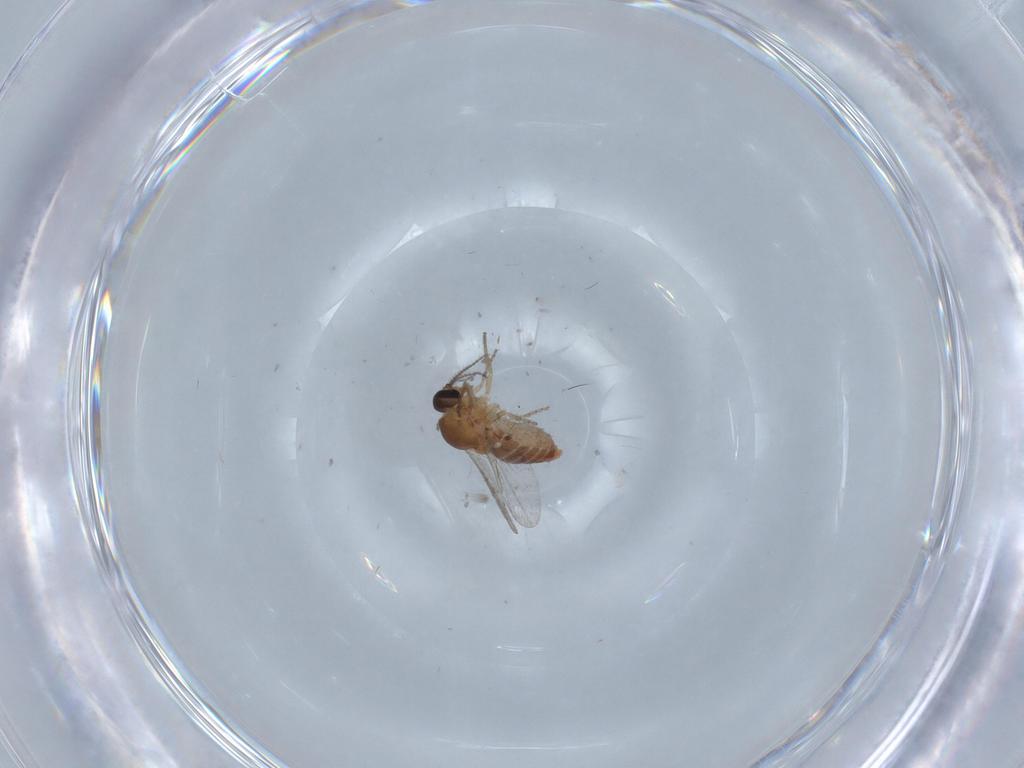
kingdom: Animalia
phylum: Arthropoda
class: Insecta
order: Diptera
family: Ceratopogonidae
